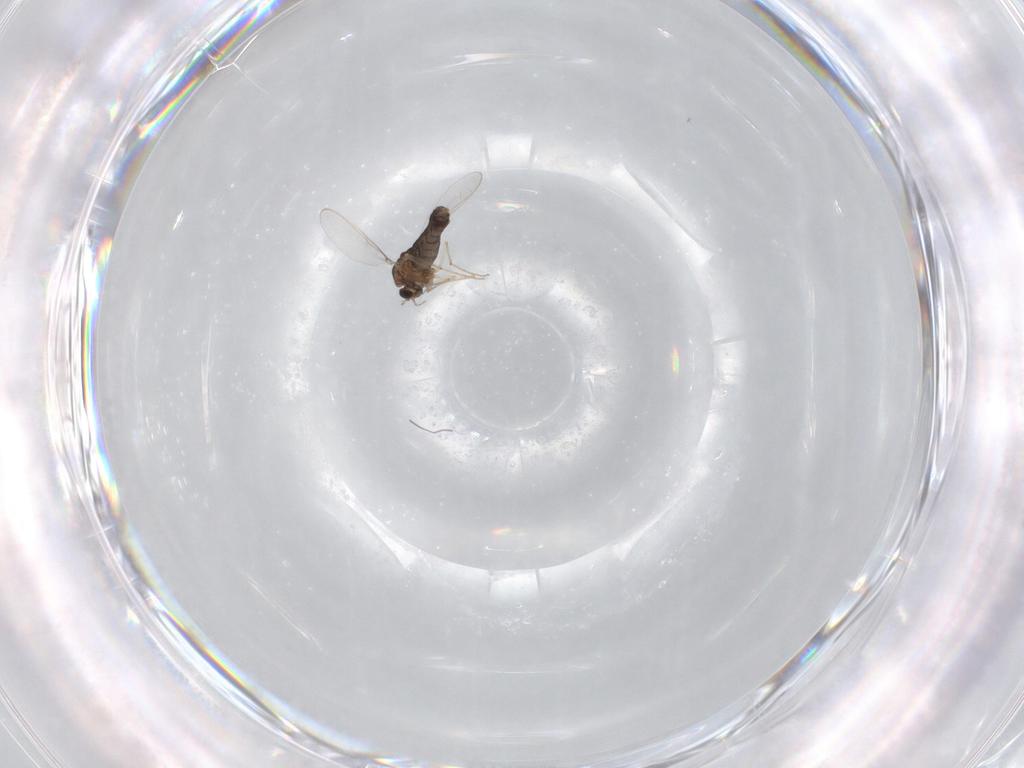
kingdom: Animalia
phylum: Arthropoda
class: Insecta
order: Diptera
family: Chironomidae
